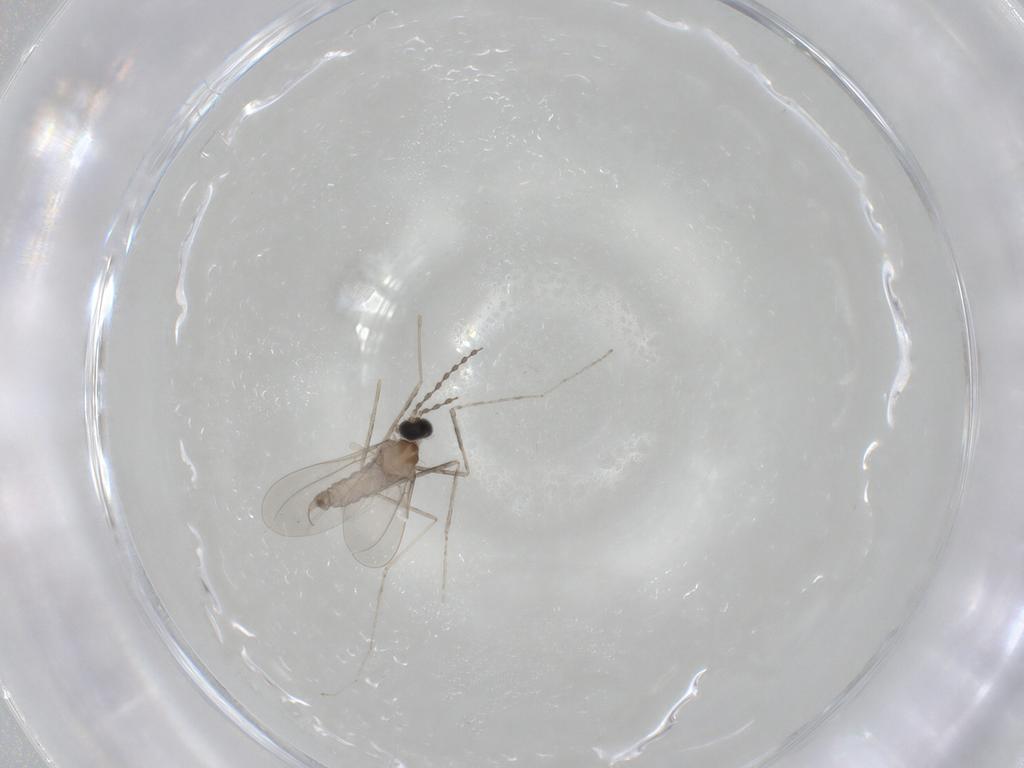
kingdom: Animalia
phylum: Arthropoda
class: Insecta
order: Diptera
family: Cecidomyiidae
